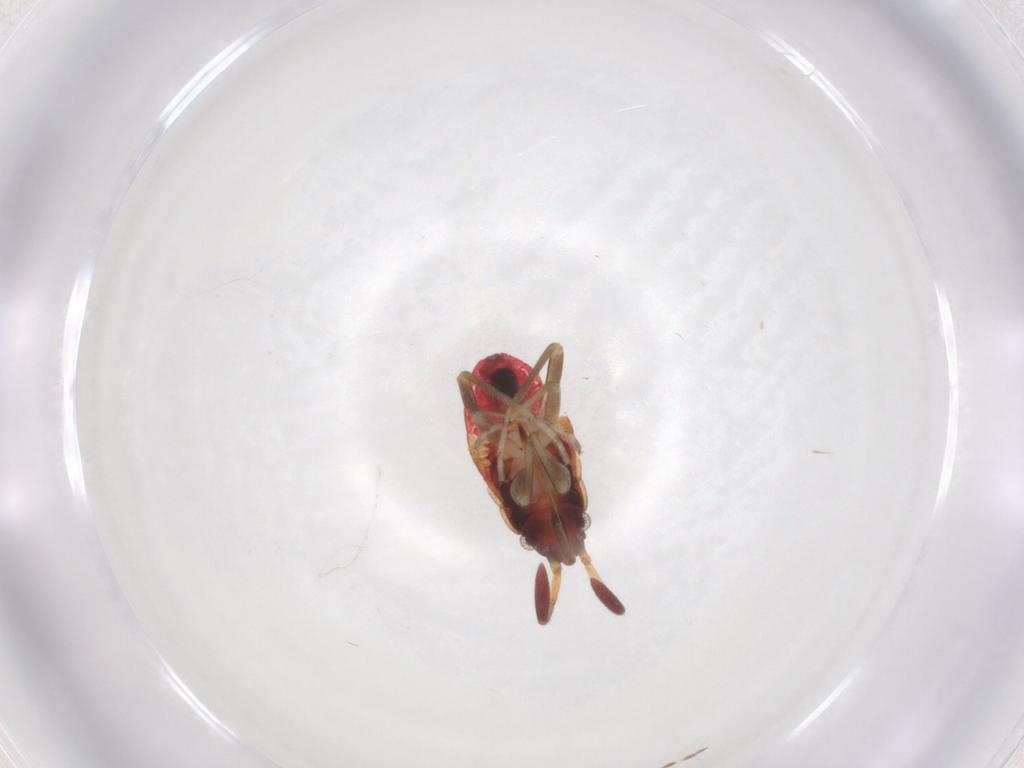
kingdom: Animalia
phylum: Arthropoda
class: Insecta
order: Hemiptera
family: Rhyparochromidae
